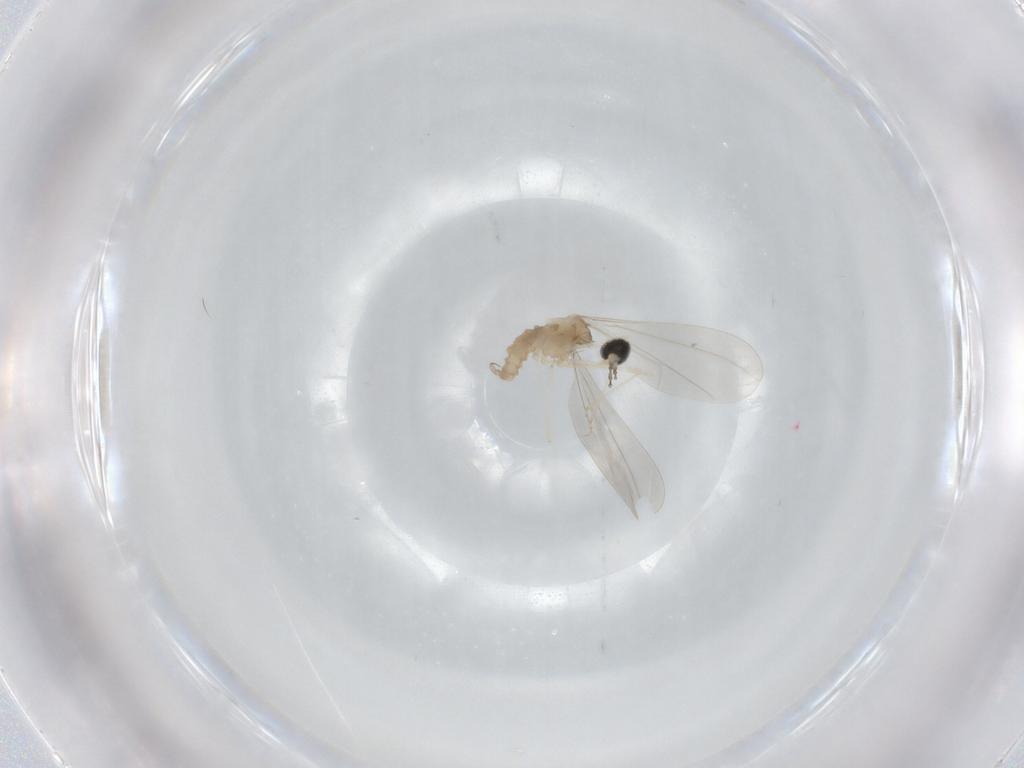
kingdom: Animalia
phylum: Arthropoda
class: Insecta
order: Diptera
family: Cecidomyiidae
